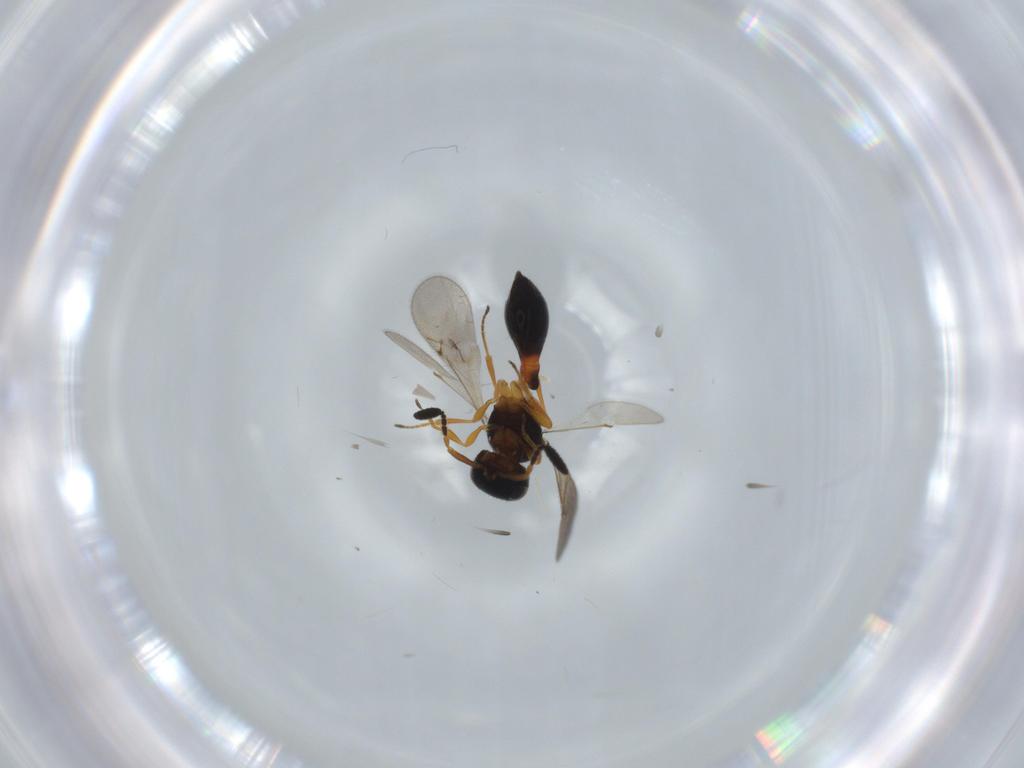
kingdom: Animalia
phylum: Arthropoda
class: Insecta
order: Hymenoptera
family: Scelionidae
